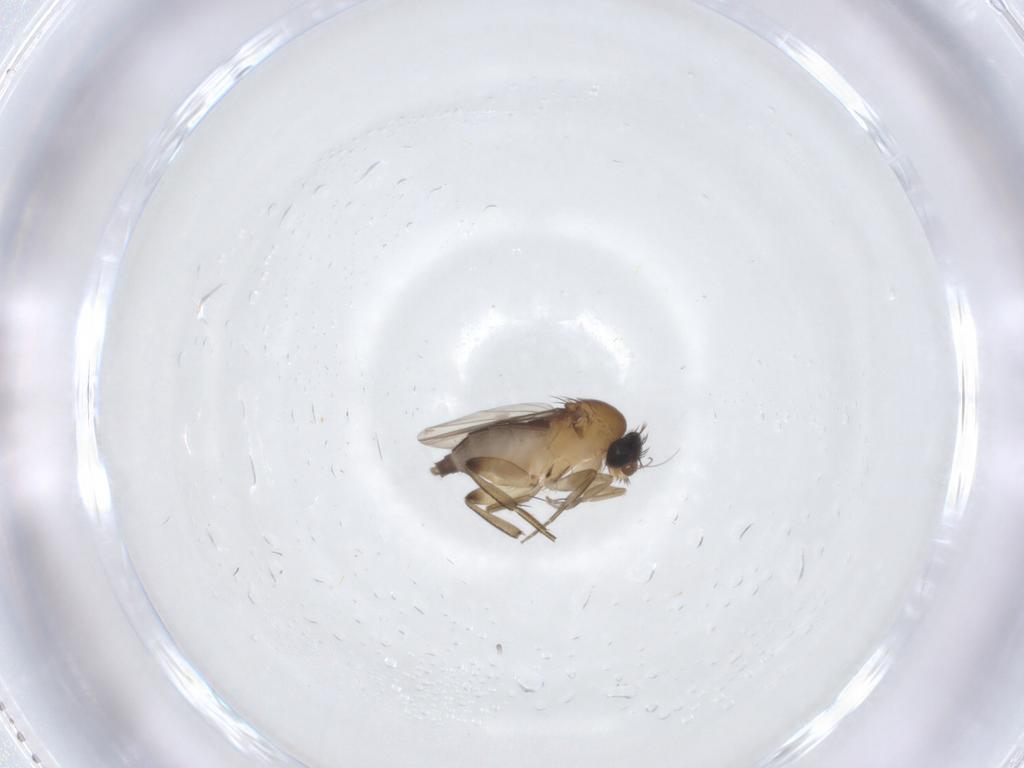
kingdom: Animalia
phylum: Arthropoda
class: Insecta
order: Diptera
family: Phoridae
